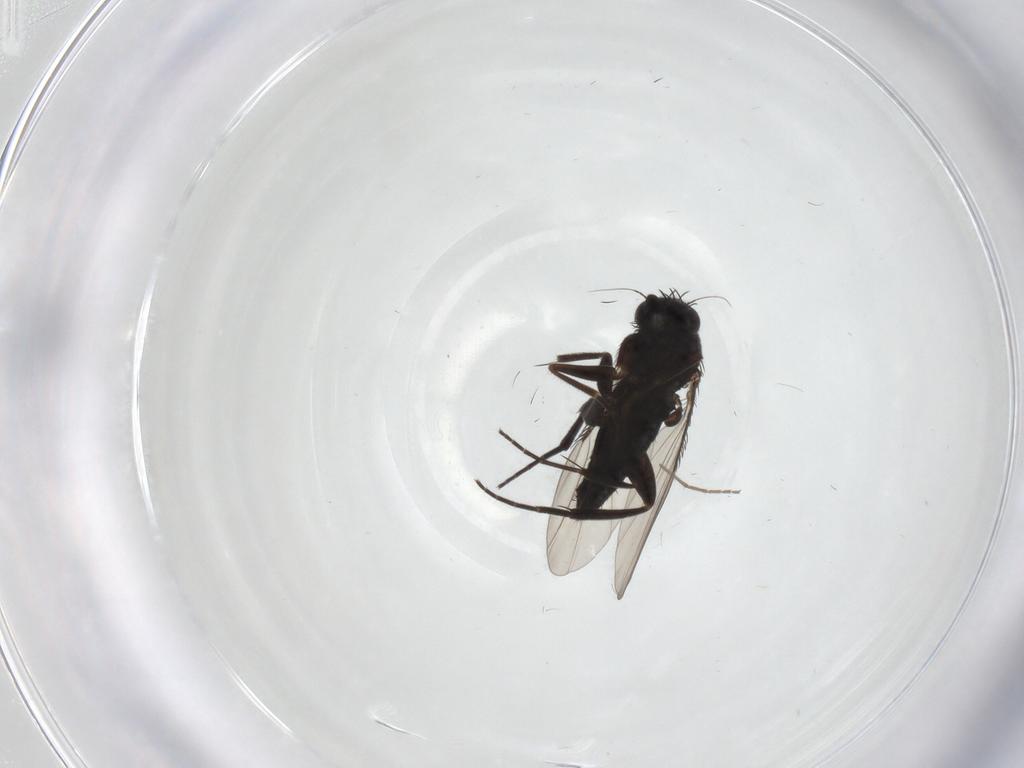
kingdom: Animalia
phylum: Arthropoda
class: Insecta
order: Diptera
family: Phoridae
